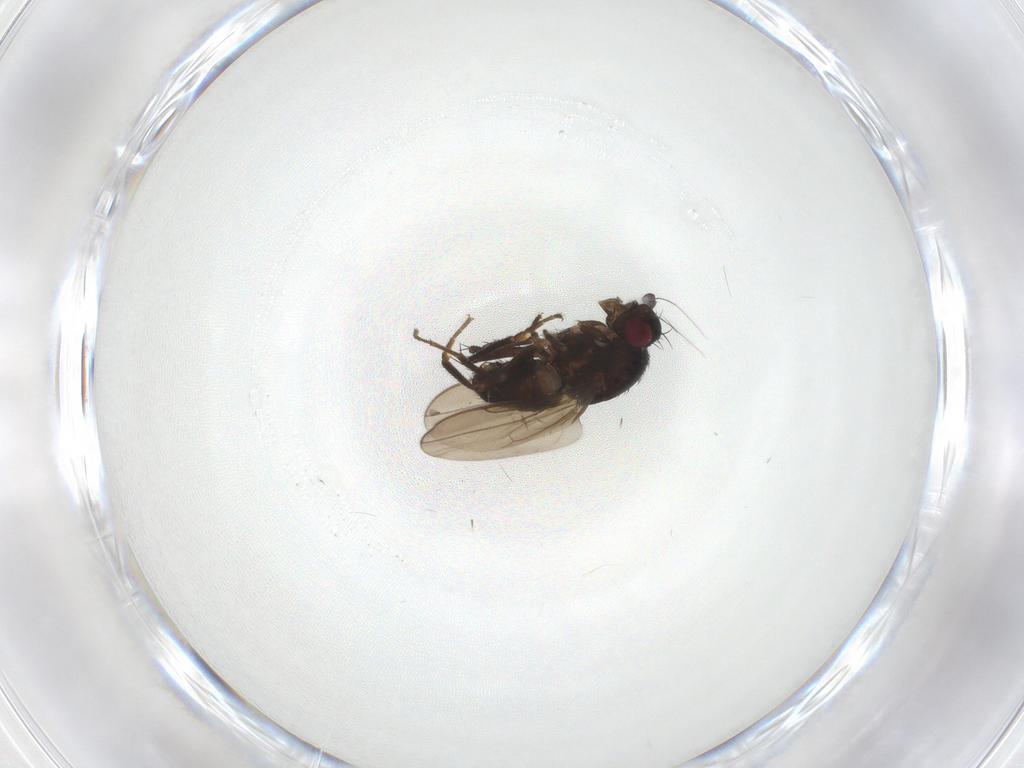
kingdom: Animalia
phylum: Arthropoda
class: Insecta
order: Diptera
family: Sphaeroceridae
